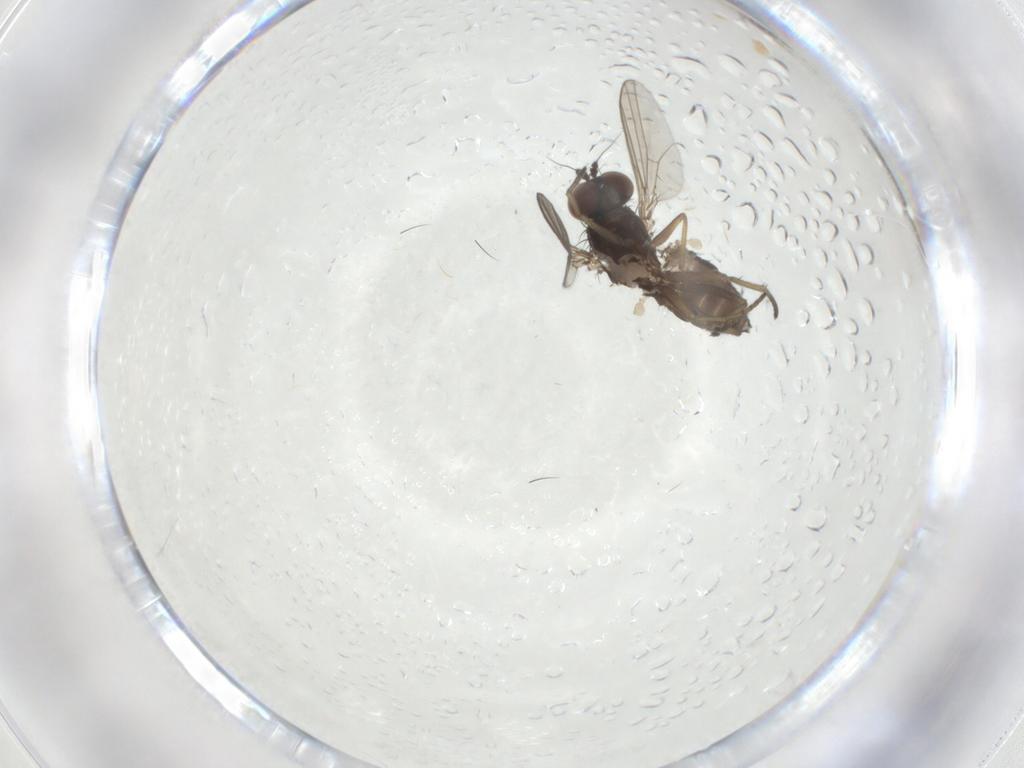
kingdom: Animalia
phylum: Arthropoda
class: Insecta
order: Diptera
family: Dolichopodidae
